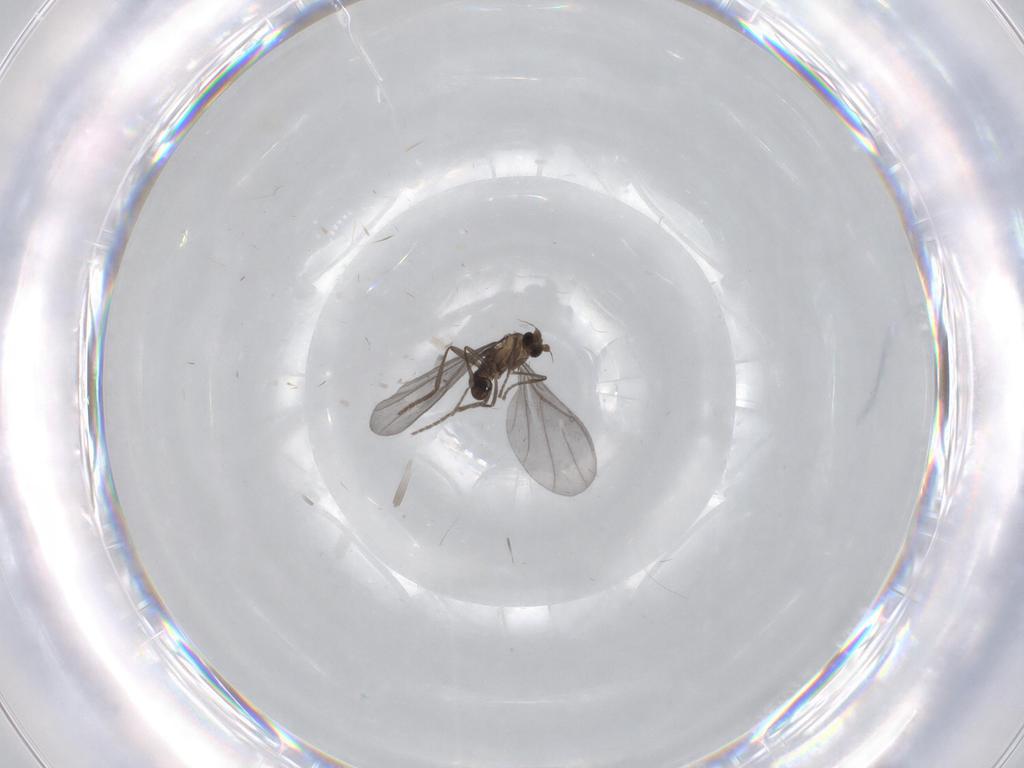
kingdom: Animalia
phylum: Arthropoda
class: Insecta
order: Diptera
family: Phoridae
